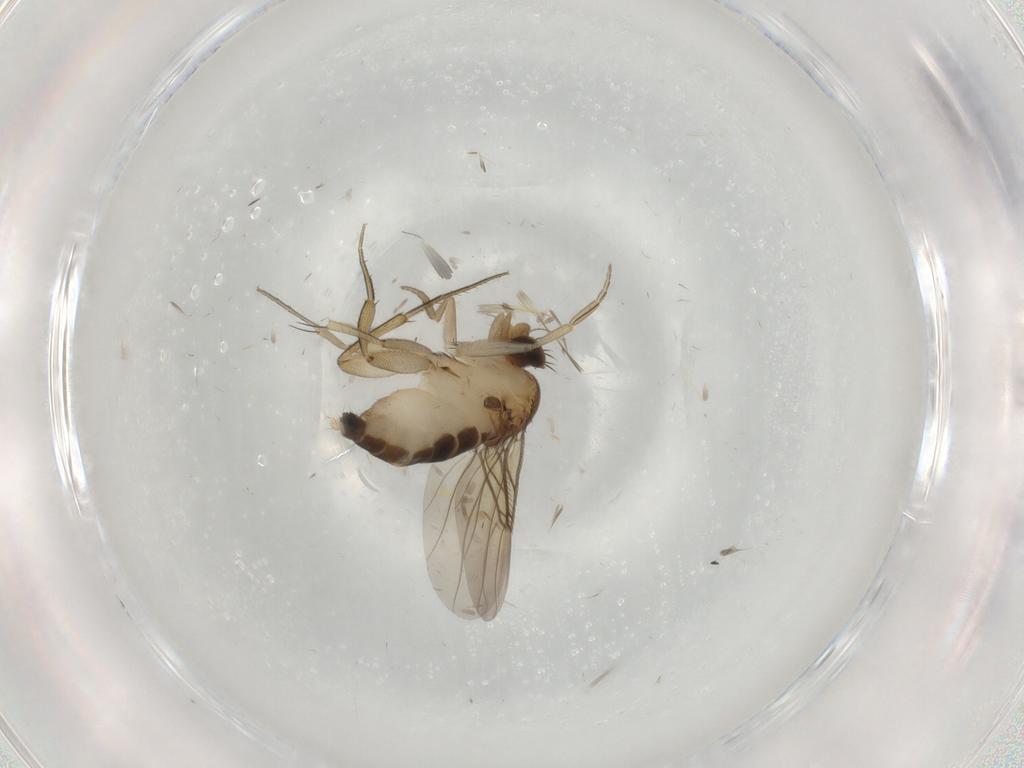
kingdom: Animalia
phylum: Arthropoda
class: Insecta
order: Diptera
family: Phoridae
